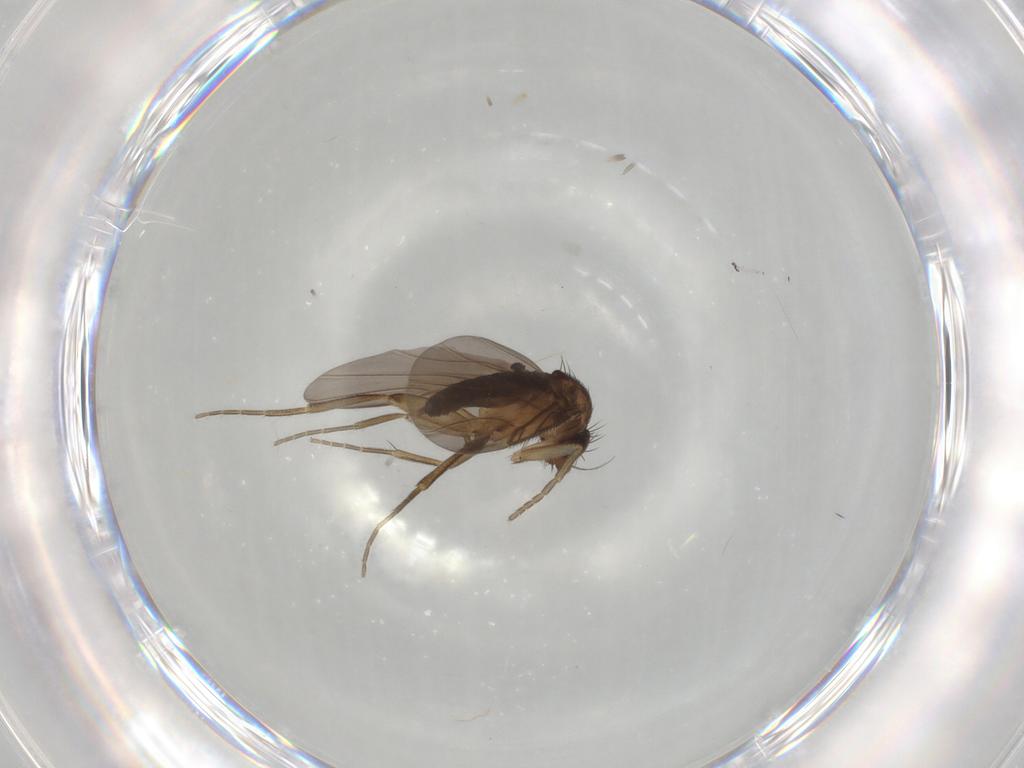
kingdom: Animalia
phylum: Arthropoda
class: Insecta
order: Diptera
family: Phoridae
